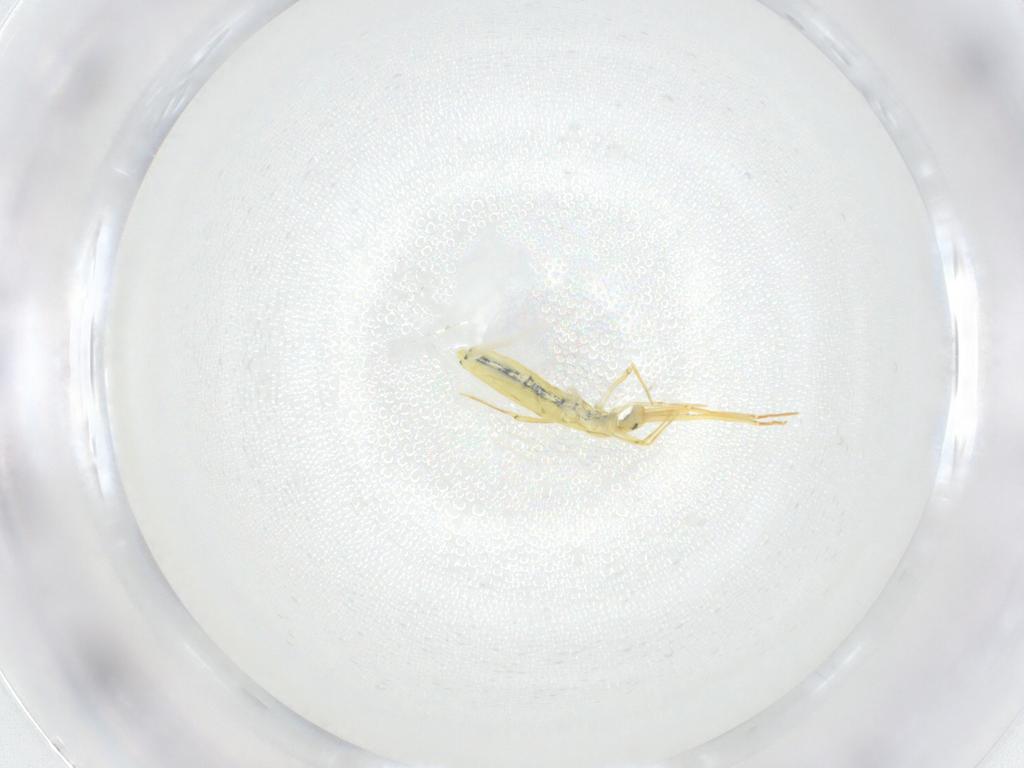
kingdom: Animalia
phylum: Arthropoda
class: Collembola
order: Entomobryomorpha
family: Entomobryidae
